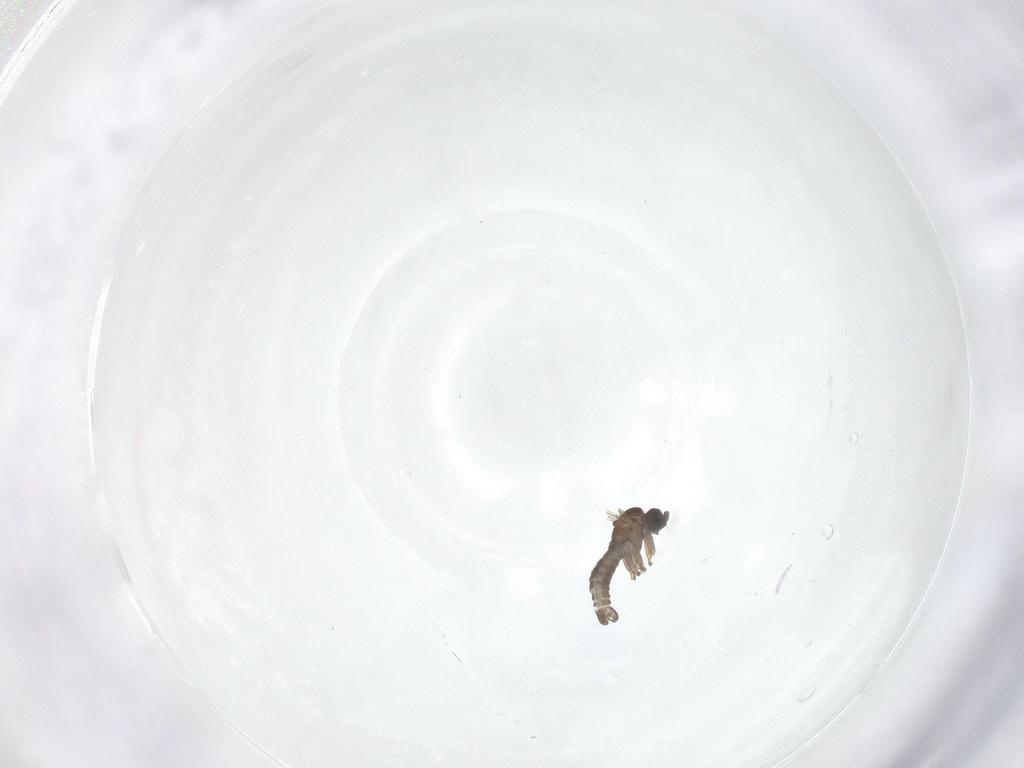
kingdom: Animalia
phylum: Arthropoda
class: Insecta
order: Diptera
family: Sciaridae
